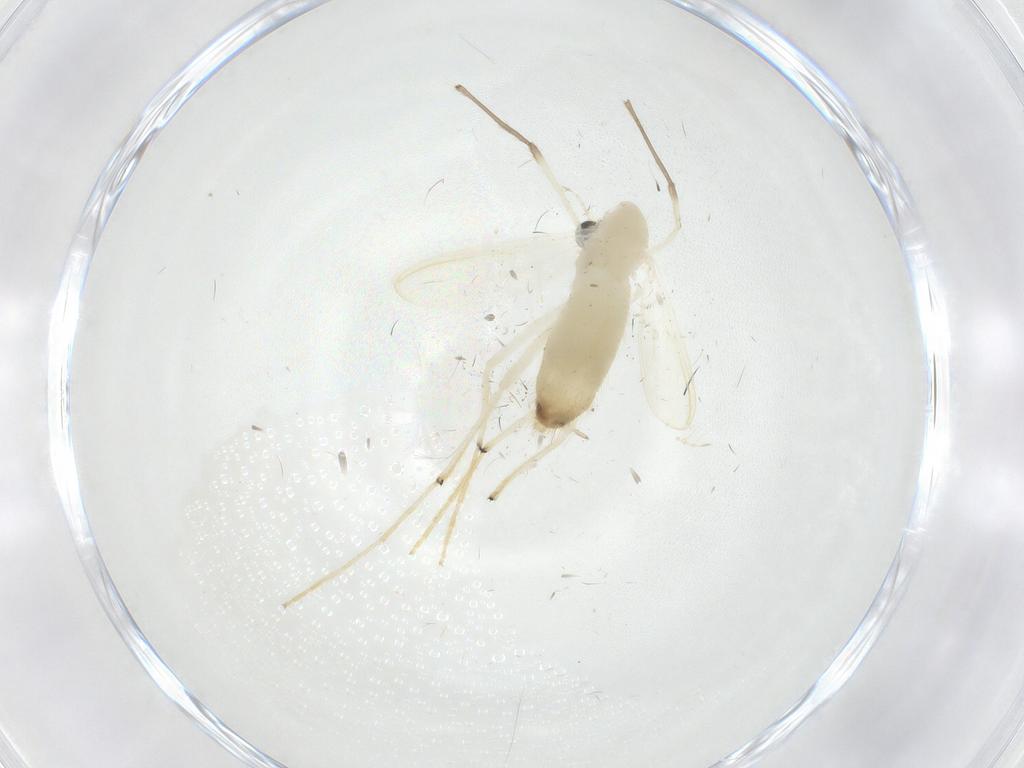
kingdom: Animalia
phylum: Arthropoda
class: Insecta
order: Diptera
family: Chironomidae
